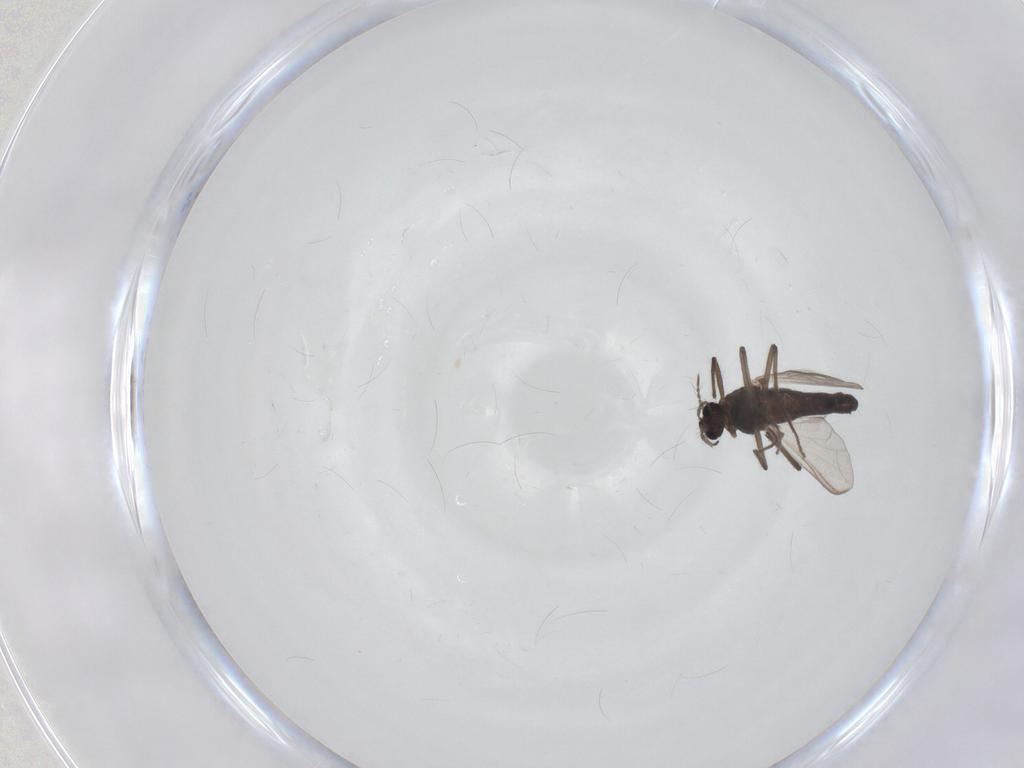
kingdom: Animalia
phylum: Arthropoda
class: Insecta
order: Diptera
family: Chironomidae
